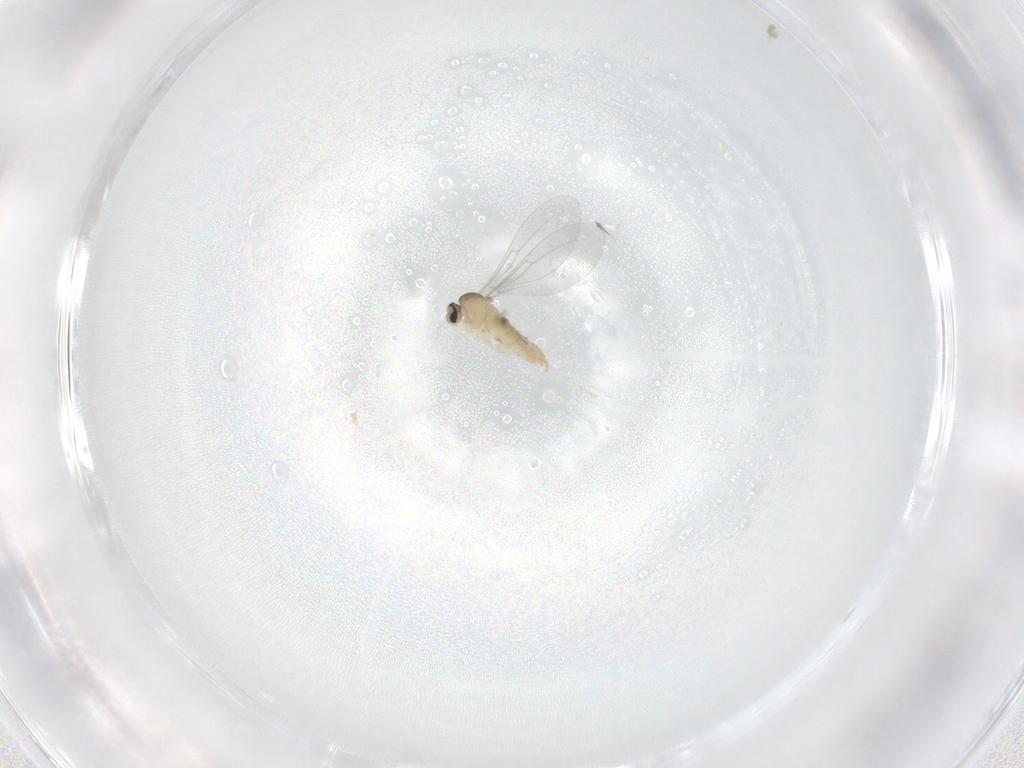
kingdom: Animalia
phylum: Arthropoda
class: Insecta
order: Diptera
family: Cecidomyiidae
